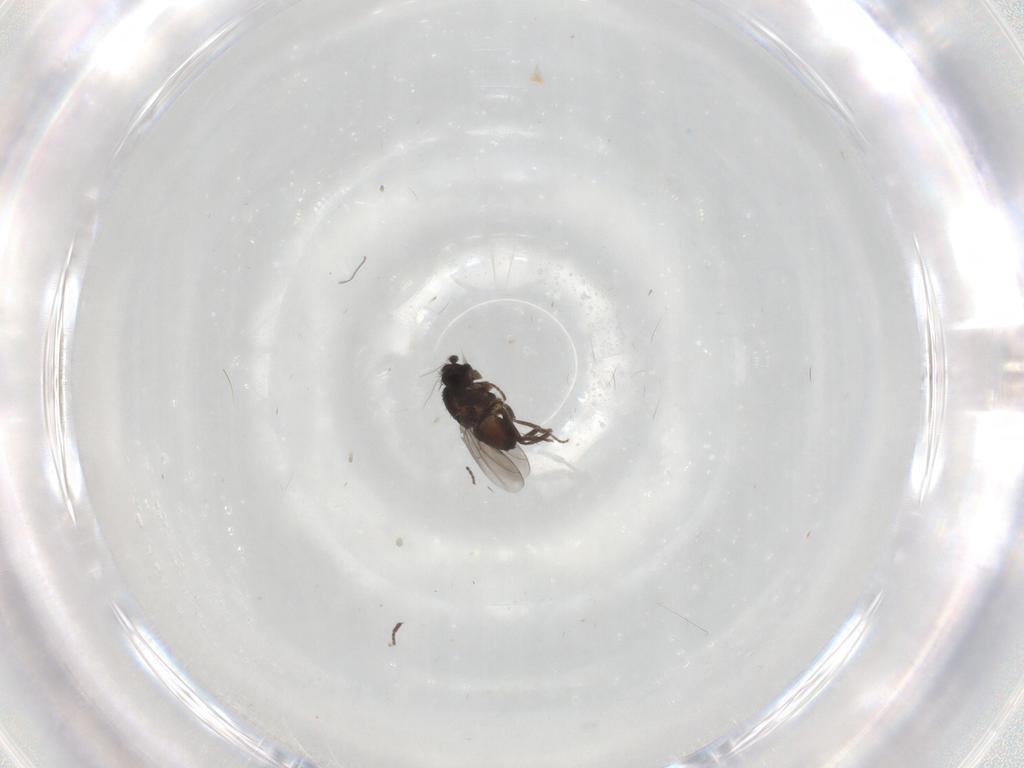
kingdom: Animalia
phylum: Arthropoda
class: Insecta
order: Diptera
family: Sphaeroceridae
